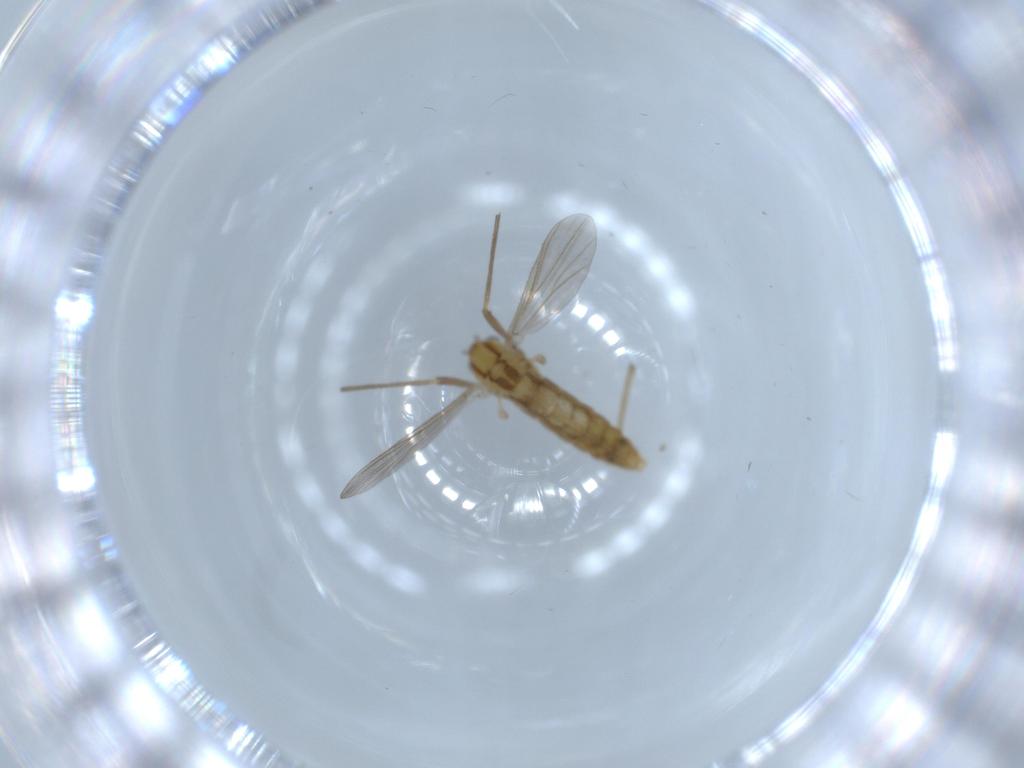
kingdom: Animalia
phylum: Arthropoda
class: Insecta
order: Diptera
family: Chironomidae
